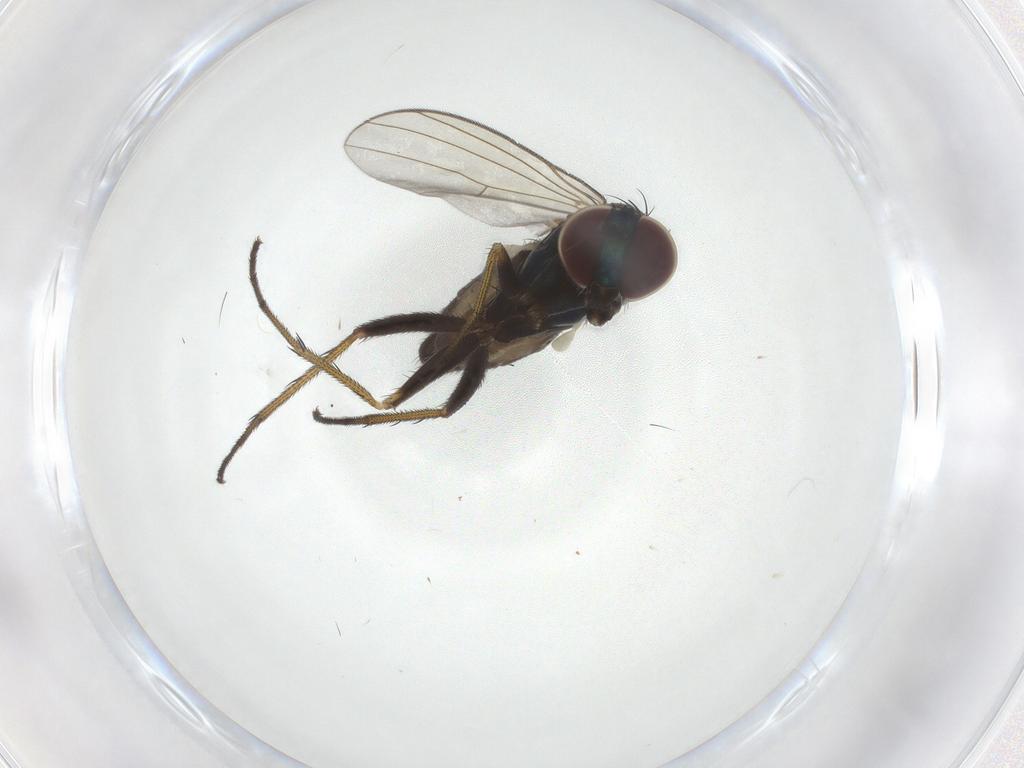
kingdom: Animalia
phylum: Arthropoda
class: Insecta
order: Diptera
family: Dolichopodidae
